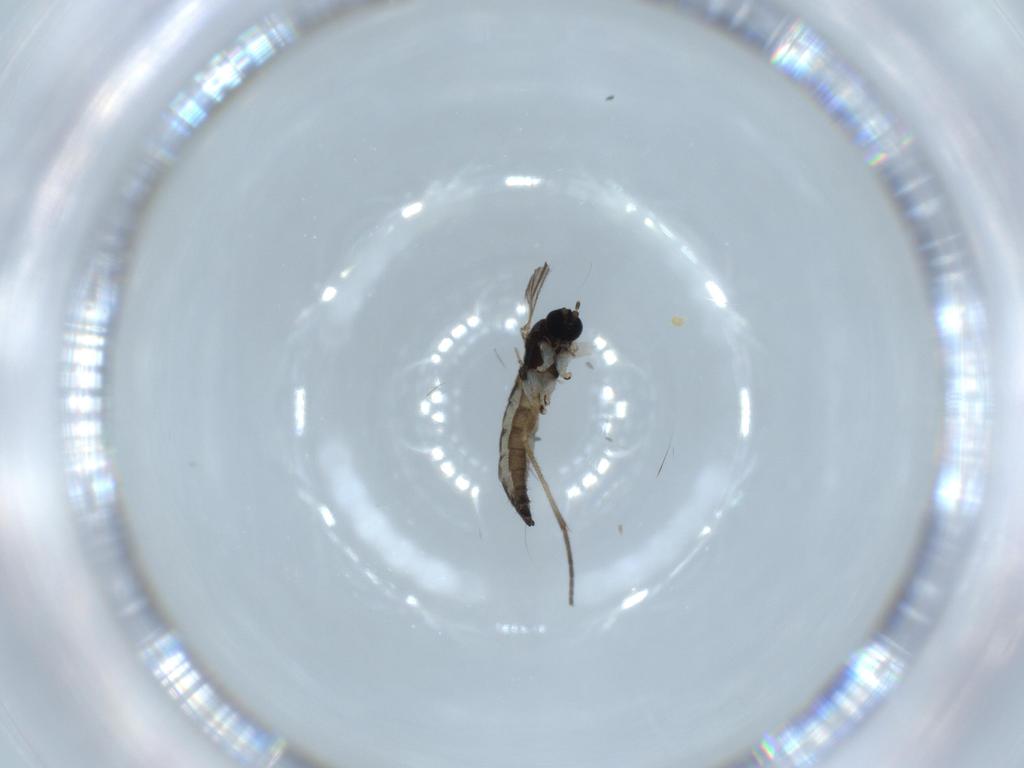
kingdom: Animalia
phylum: Arthropoda
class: Insecta
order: Diptera
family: Sciaridae
